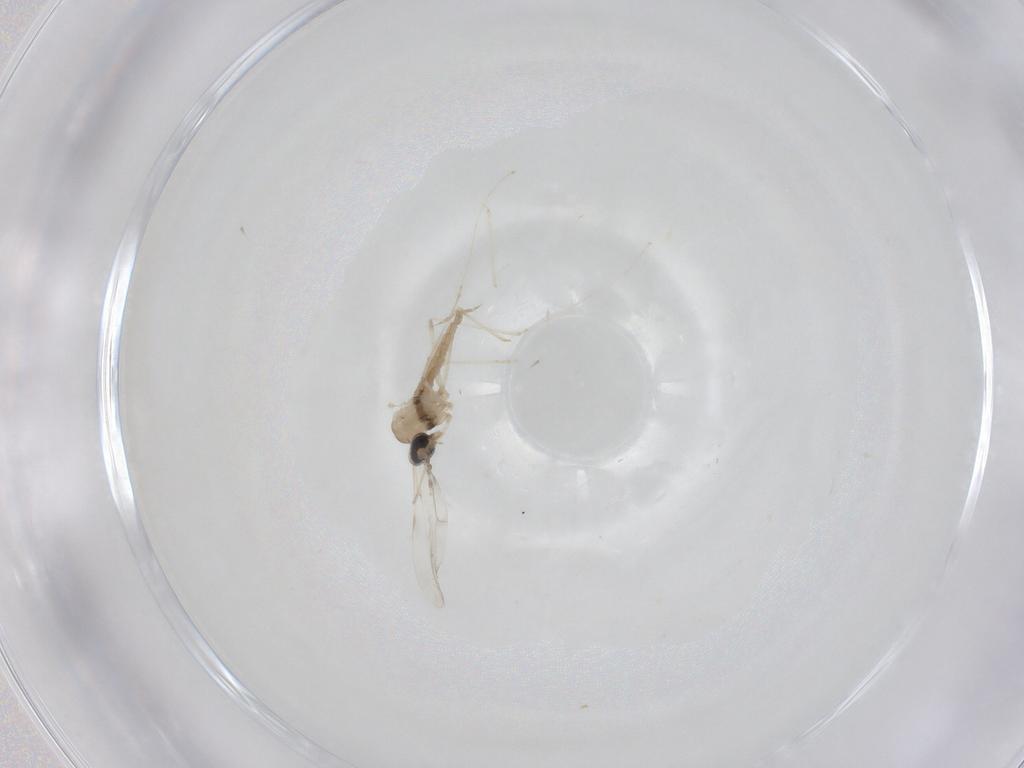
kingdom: Animalia
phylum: Arthropoda
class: Insecta
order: Diptera
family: Cecidomyiidae
